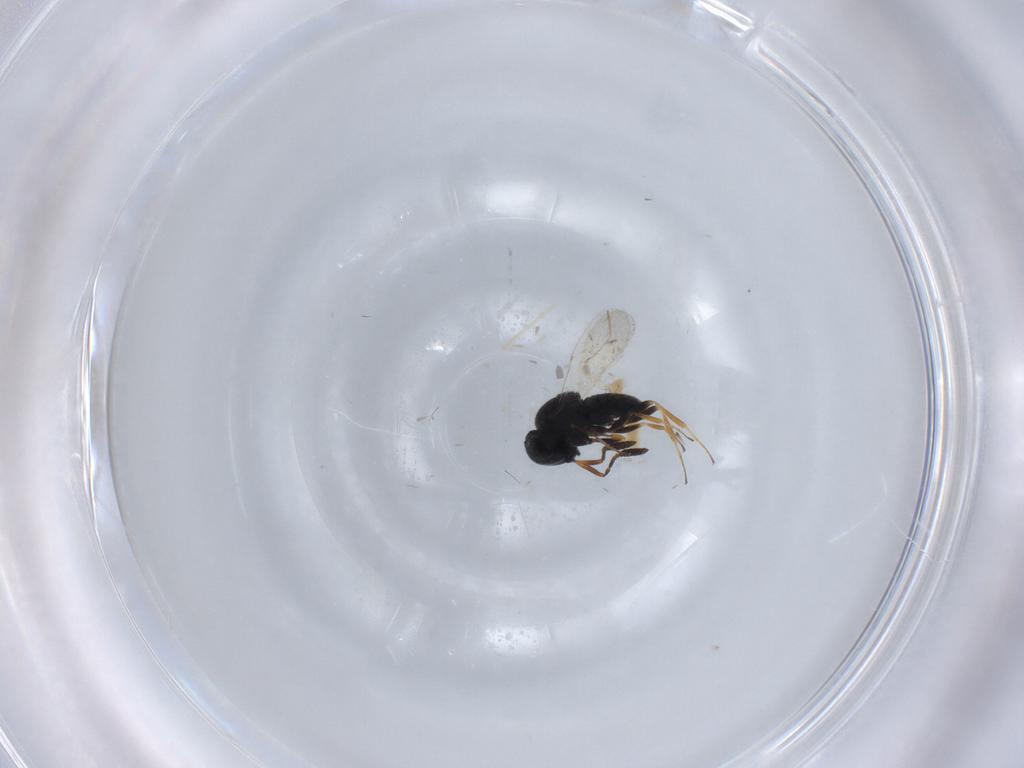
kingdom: Animalia
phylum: Arthropoda
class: Insecta
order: Coleoptera
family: Curculionidae
